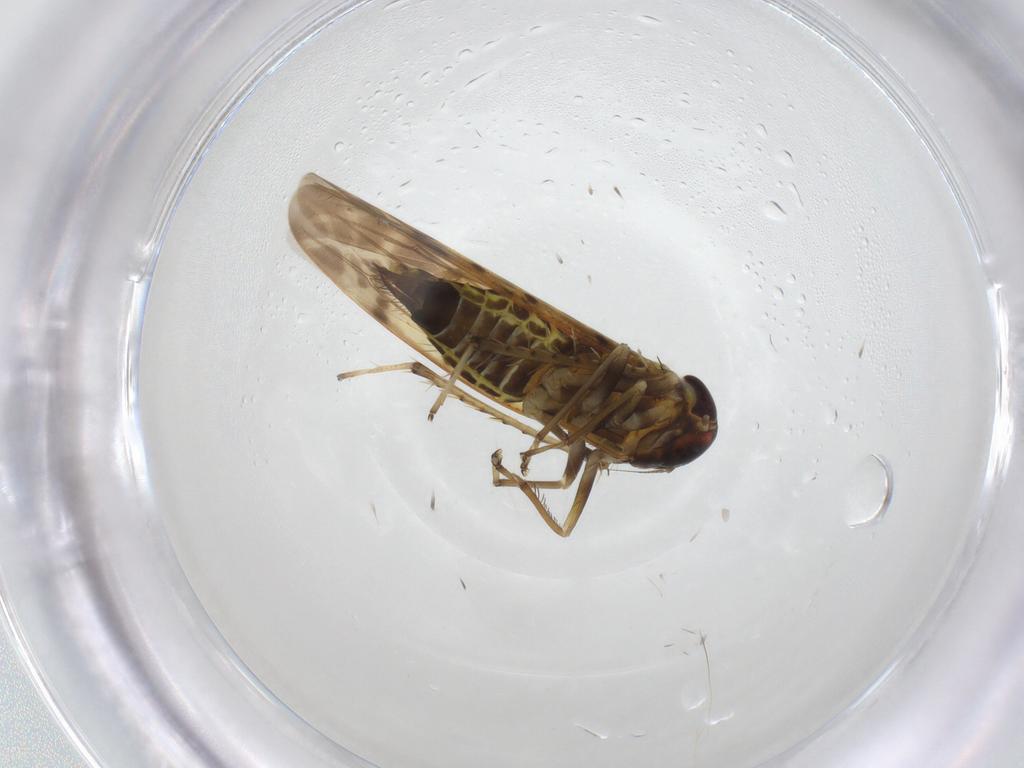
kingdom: Animalia
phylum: Arthropoda
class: Insecta
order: Hemiptera
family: Cicadellidae
